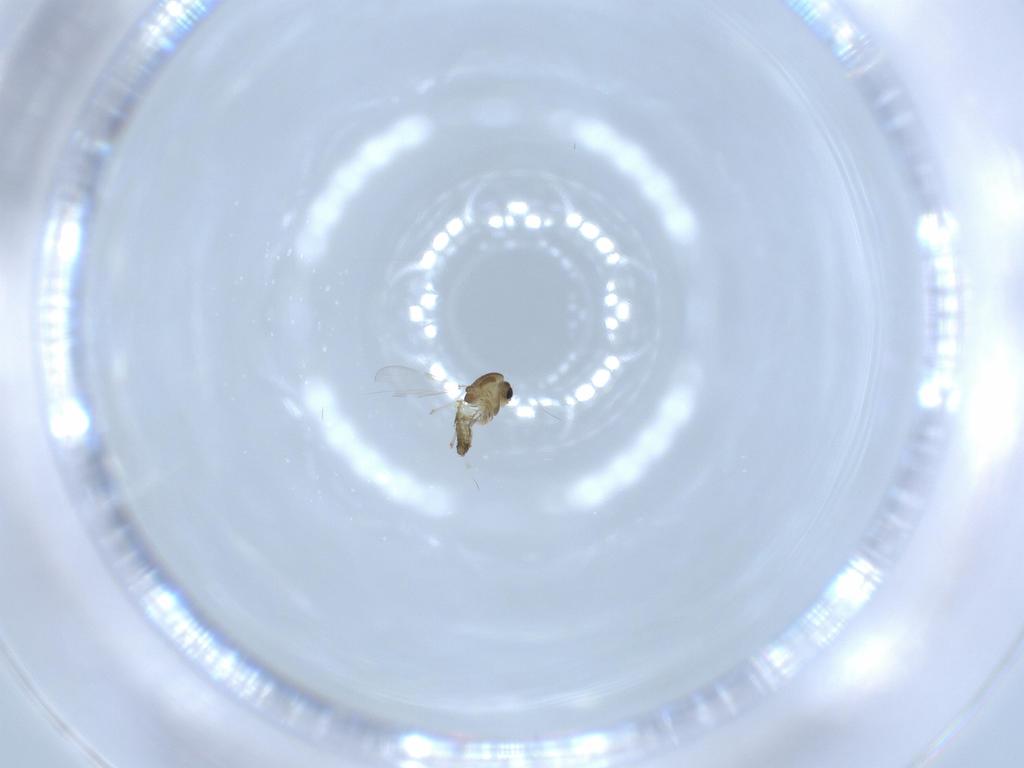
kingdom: Animalia
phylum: Arthropoda
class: Insecta
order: Diptera
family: Chironomidae
